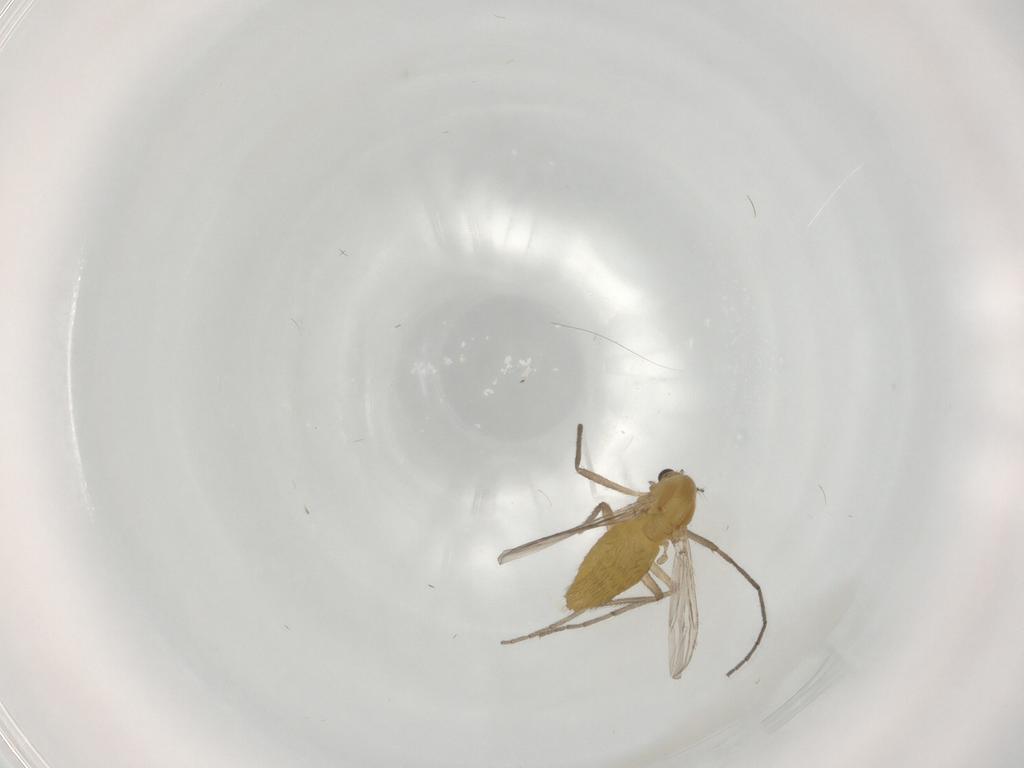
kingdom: Animalia
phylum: Arthropoda
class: Insecta
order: Diptera
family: Chironomidae
